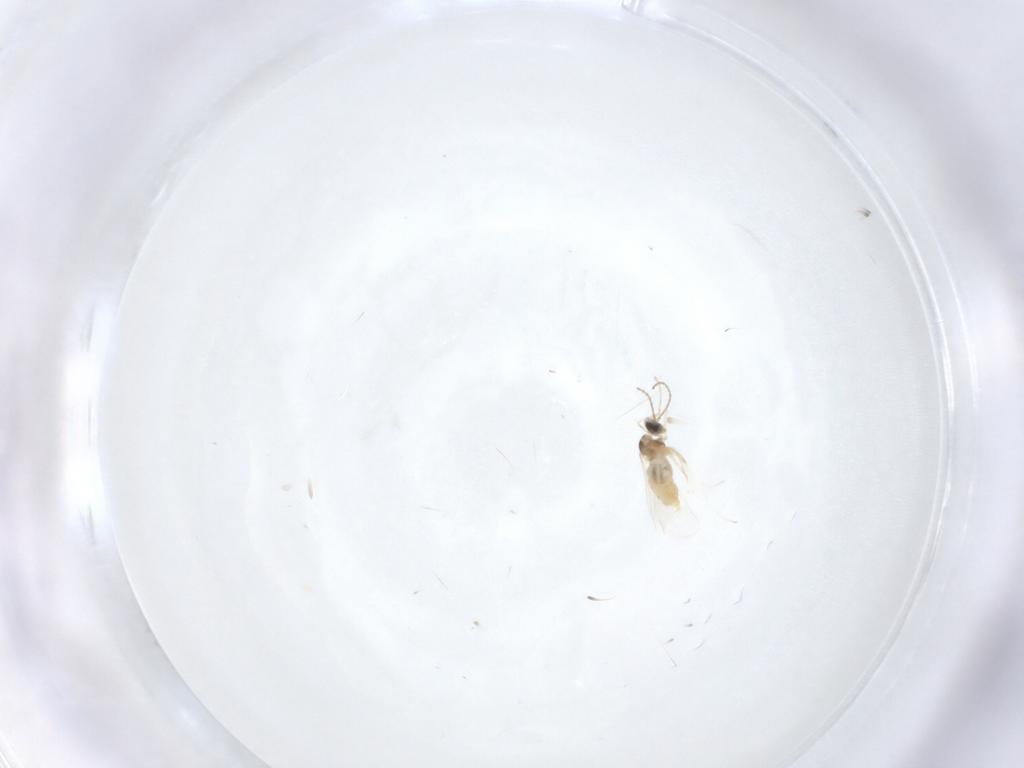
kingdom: Animalia
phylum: Arthropoda
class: Insecta
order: Diptera
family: Cecidomyiidae
